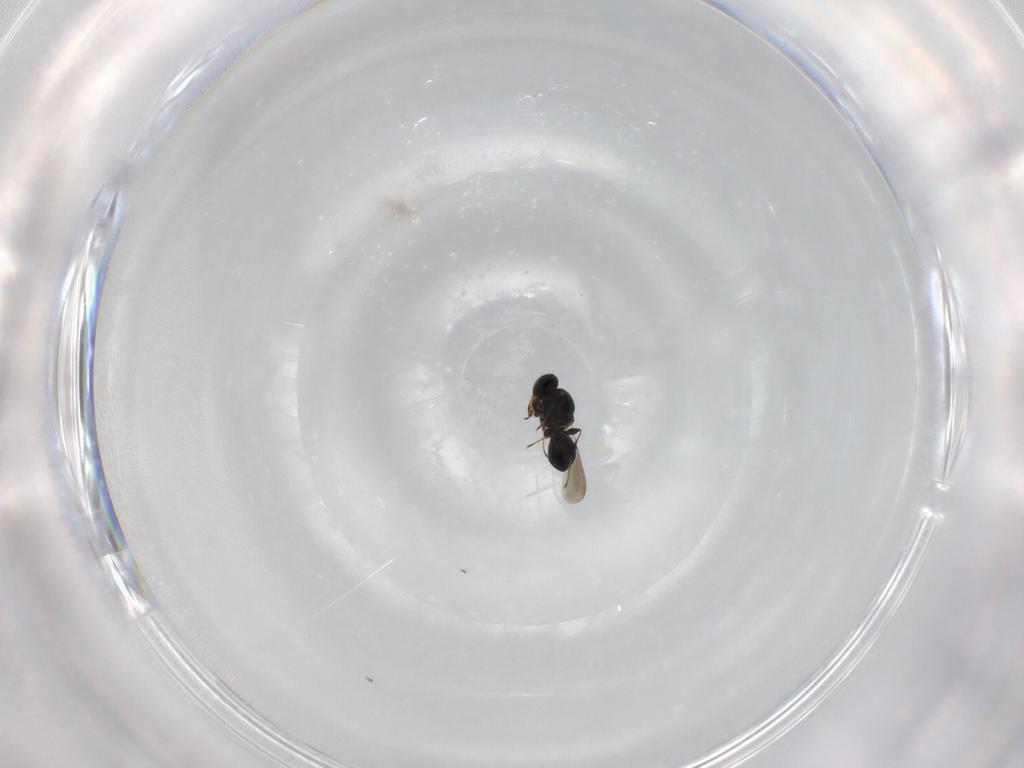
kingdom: Animalia
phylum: Arthropoda
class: Insecta
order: Hymenoptera
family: Platygastridae
